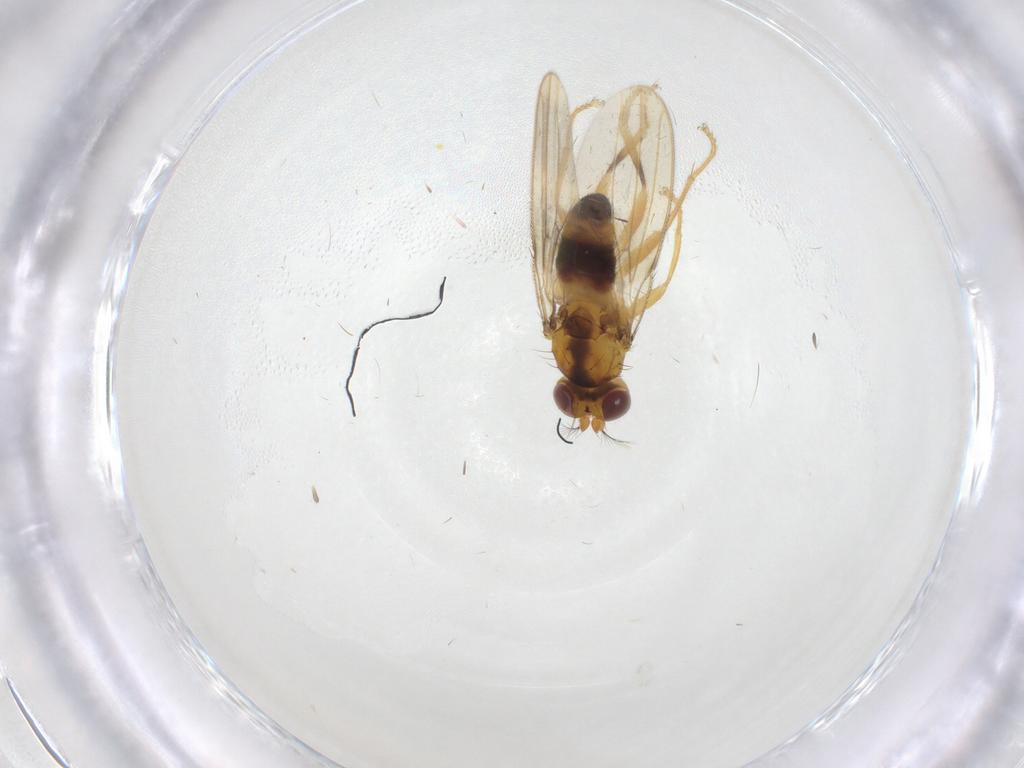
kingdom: Animalia
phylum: Arthropoda
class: Insecta
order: Diptera
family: Periscelididae
